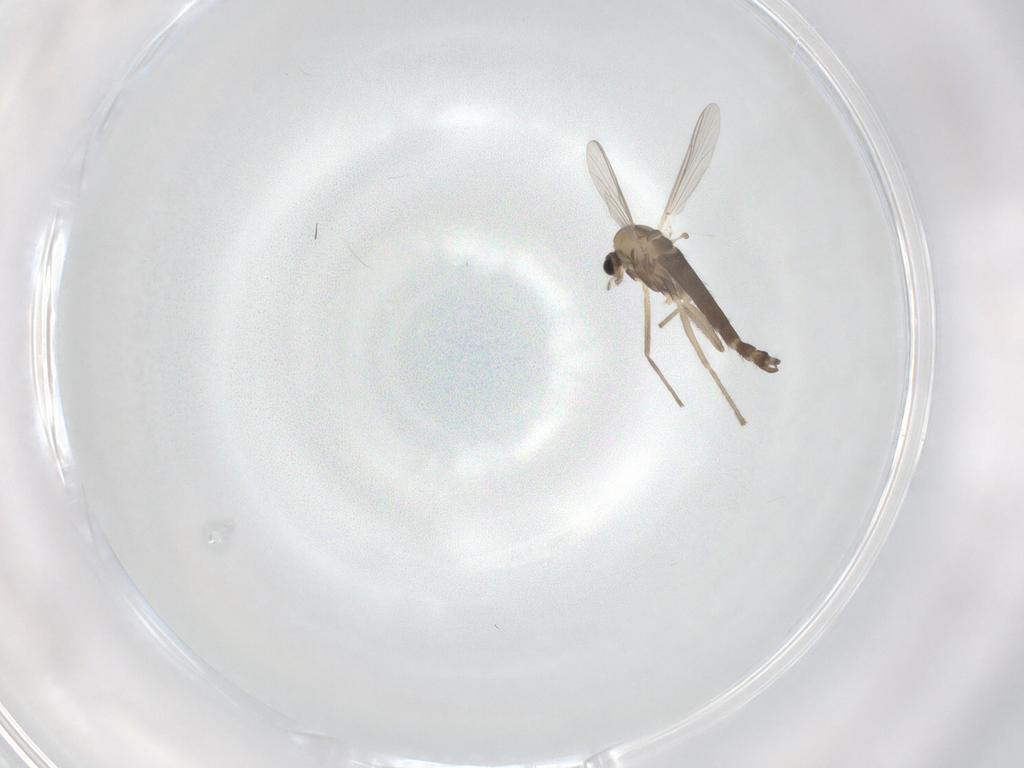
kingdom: Animalia
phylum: Arthropoda
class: Insecta
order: Diptera
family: Chironomidae
